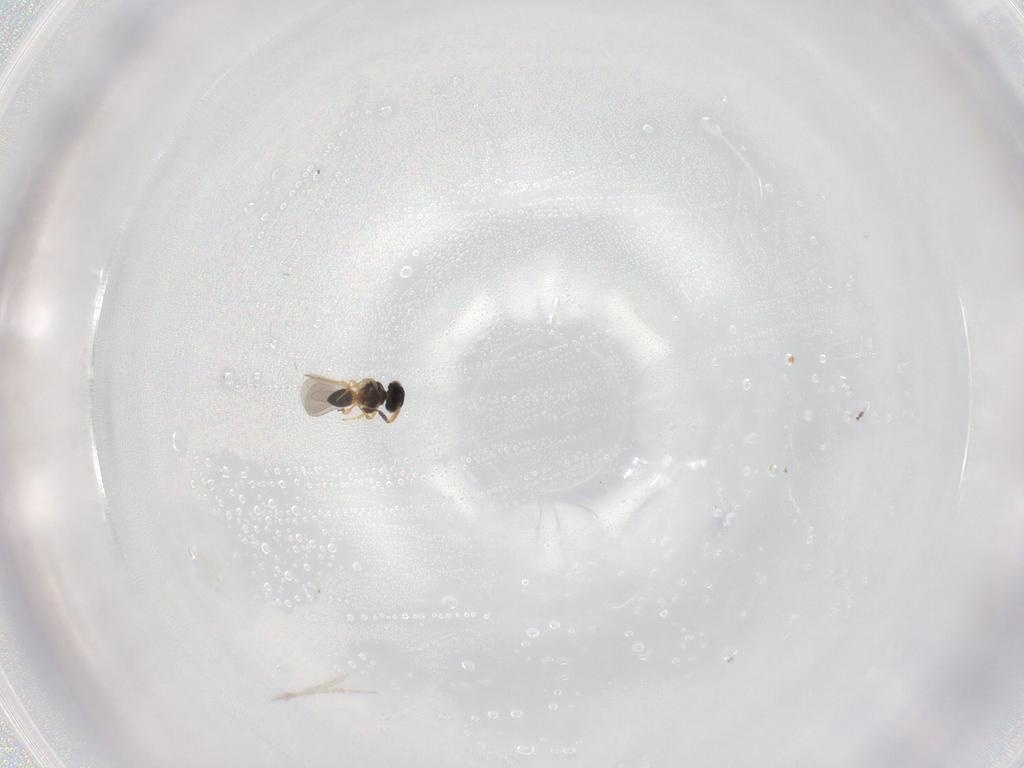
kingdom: Animalia
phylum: Arthropoda
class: Insecta
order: Hymenoptera
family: Formicidae
